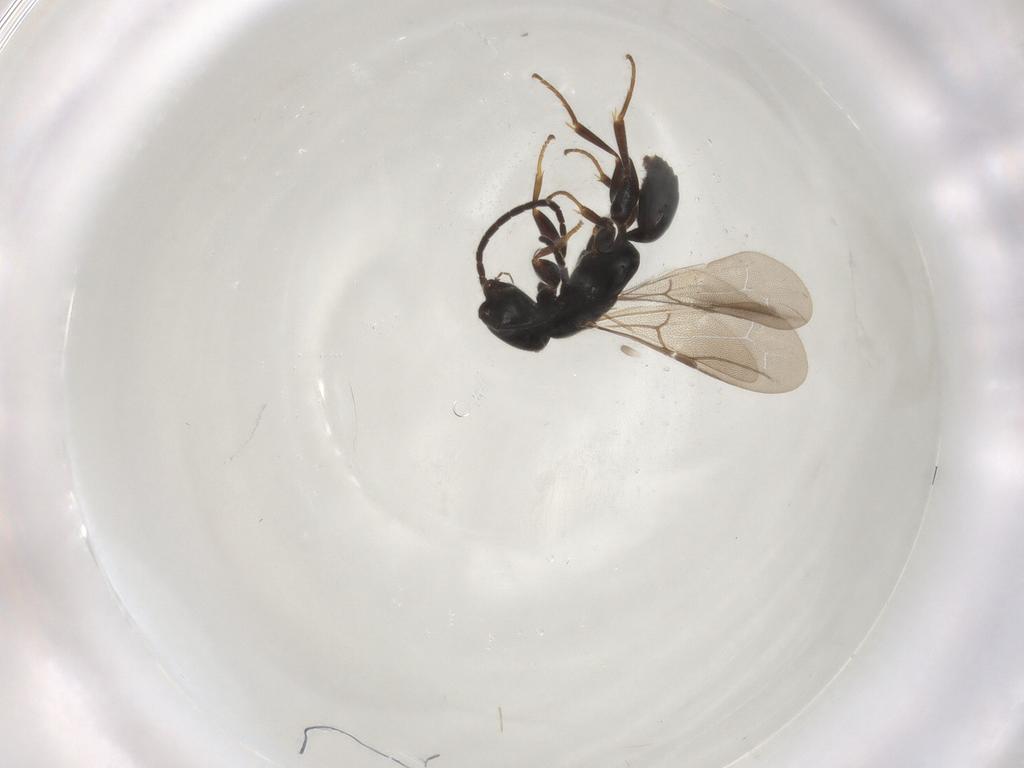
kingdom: Animalia
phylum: Arthropoda
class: Insecta
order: Hymenoptera
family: Bethylidae
